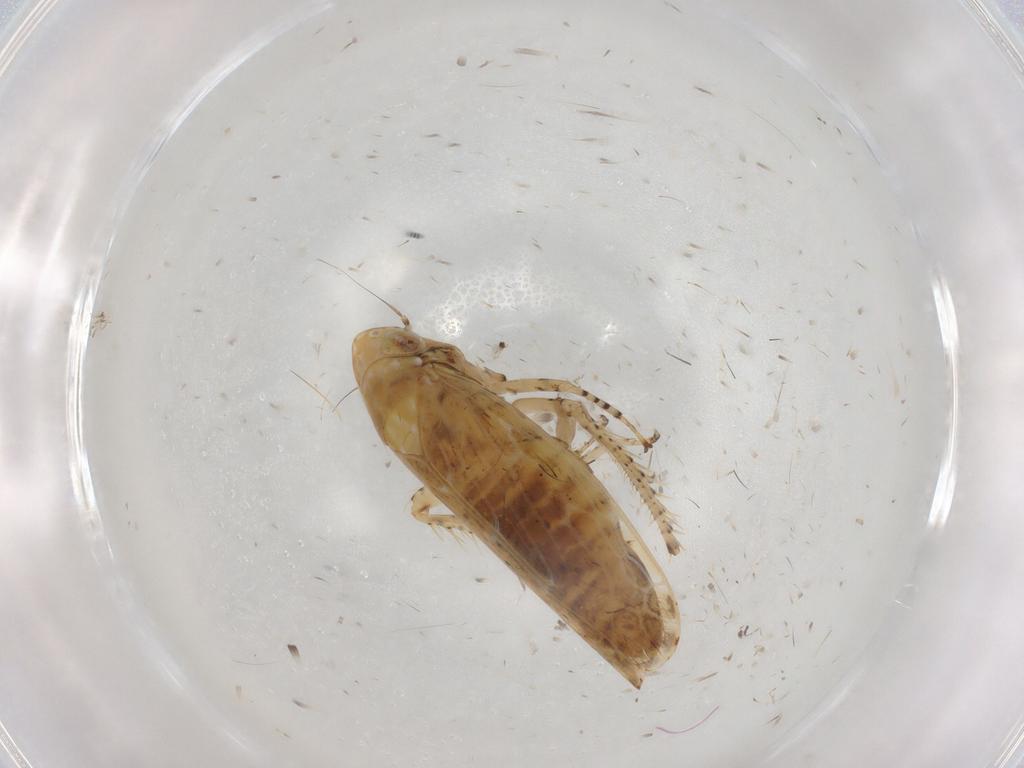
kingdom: Animalia
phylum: Arthropoda
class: Insecta
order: Hemiptera
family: Cicadellidae
